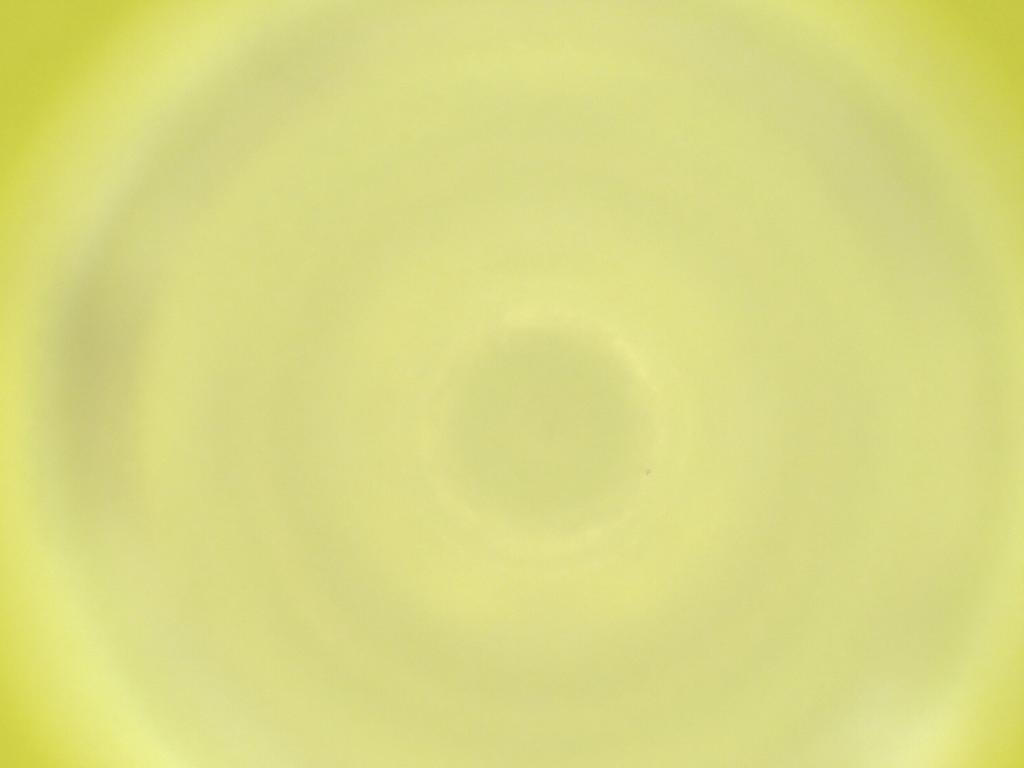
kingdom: Animalia
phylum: Arthropoda
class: Insecta
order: Diptera
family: Cecidomyiidae
